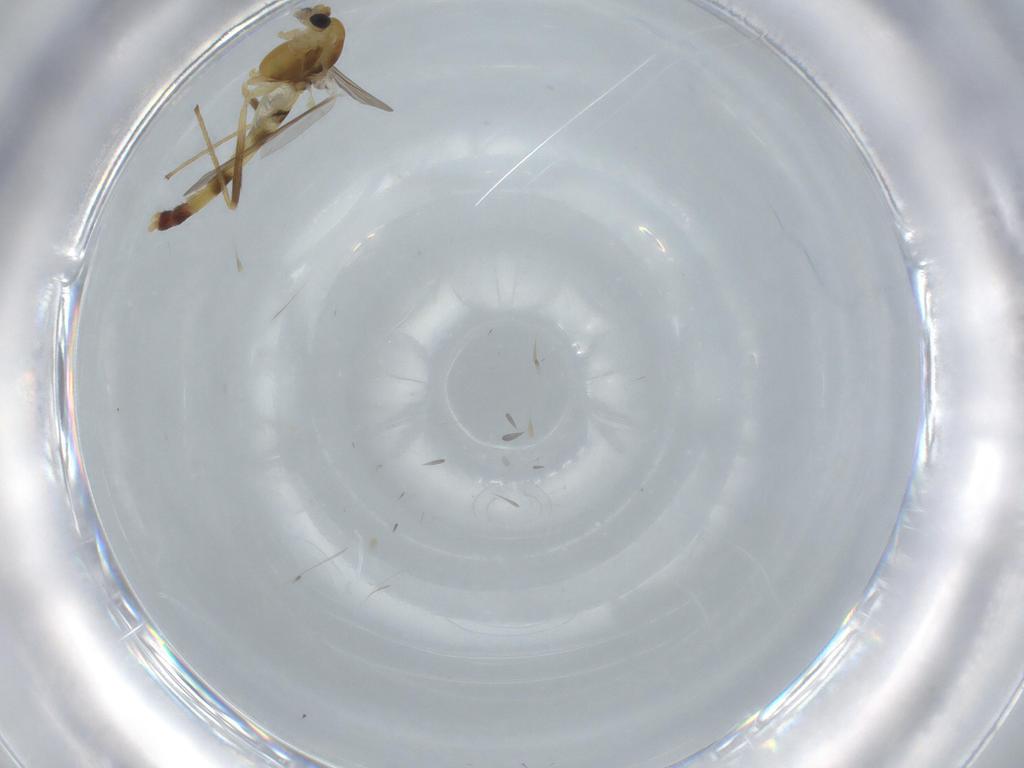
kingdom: Animalia
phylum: Arthropoda
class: Insecta
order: Diptera
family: Chironomidae
